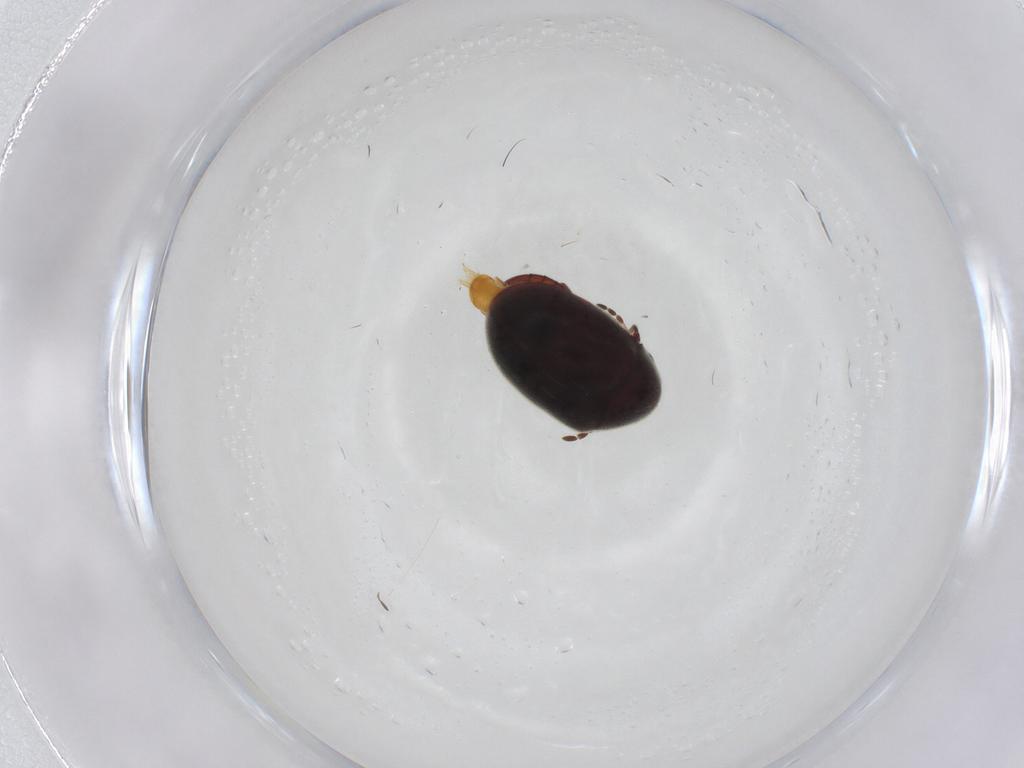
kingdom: Animalia
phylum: Arthropoda
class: Insecta
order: Coleoptera
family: Ptinidae
